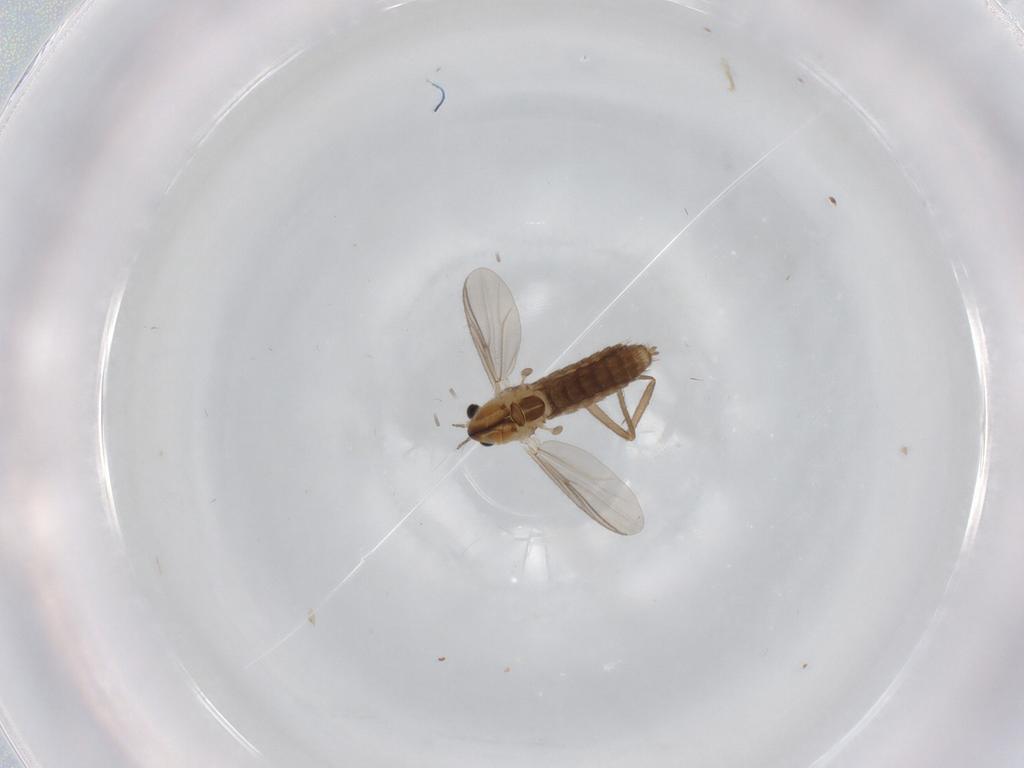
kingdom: Animalia
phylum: Arthropoda
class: Insecta
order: Diptera
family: Chironomidae
